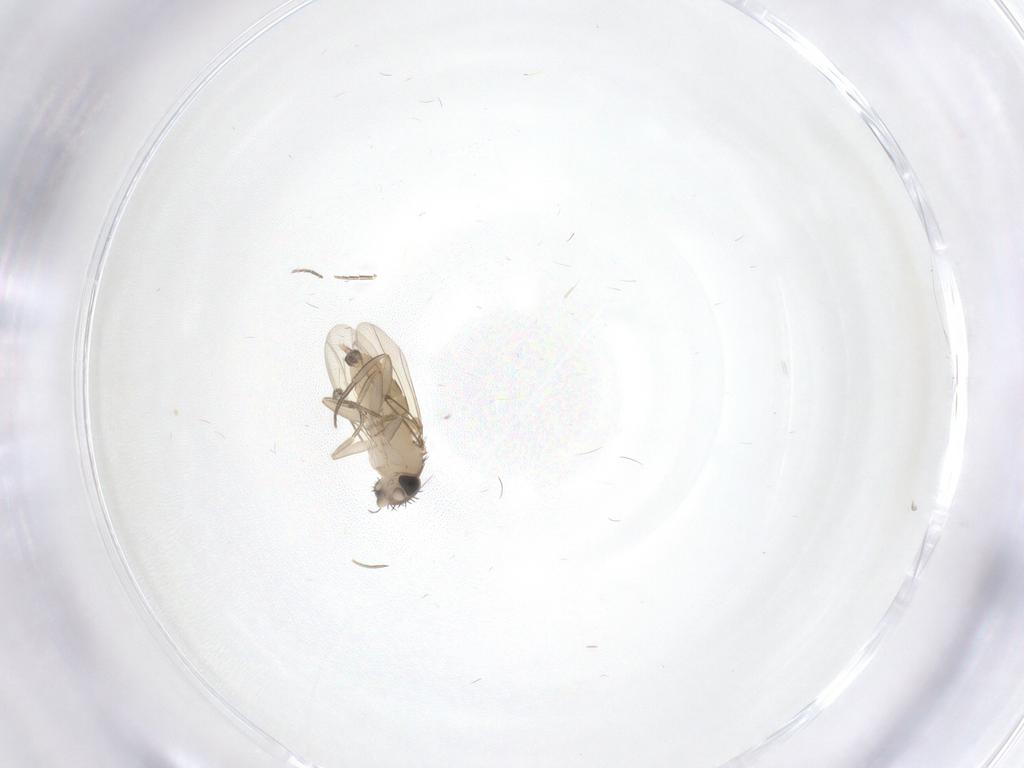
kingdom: Animalia
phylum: Arthropoda
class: Insecta
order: Diptera
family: Phoridae
